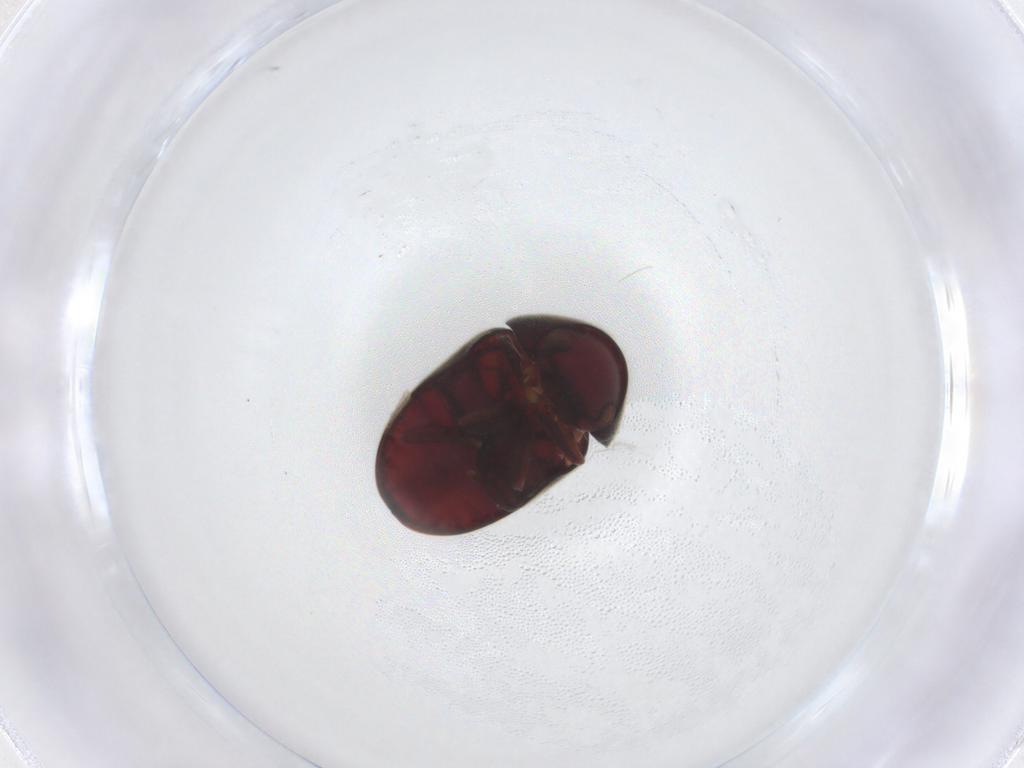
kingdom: Animalia
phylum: Arthropoda
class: Insecta
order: Coleoptera
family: Ptinidae
